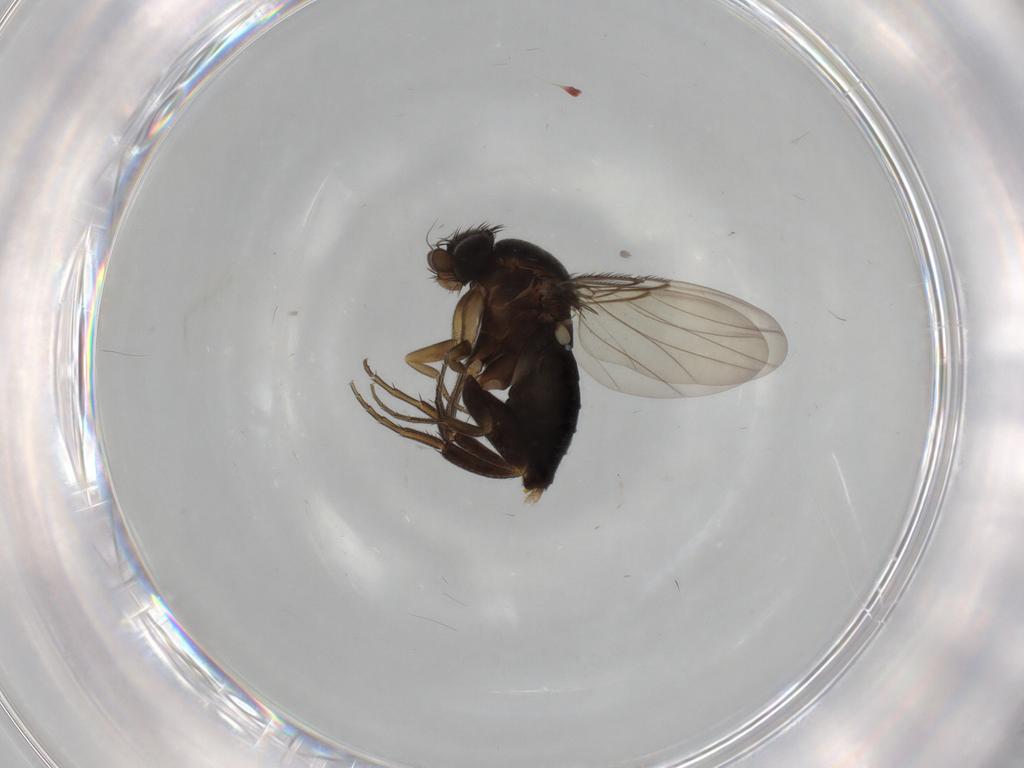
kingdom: Animalia
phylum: Arthropoda
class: Insecta
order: Diptera
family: Phoridae
